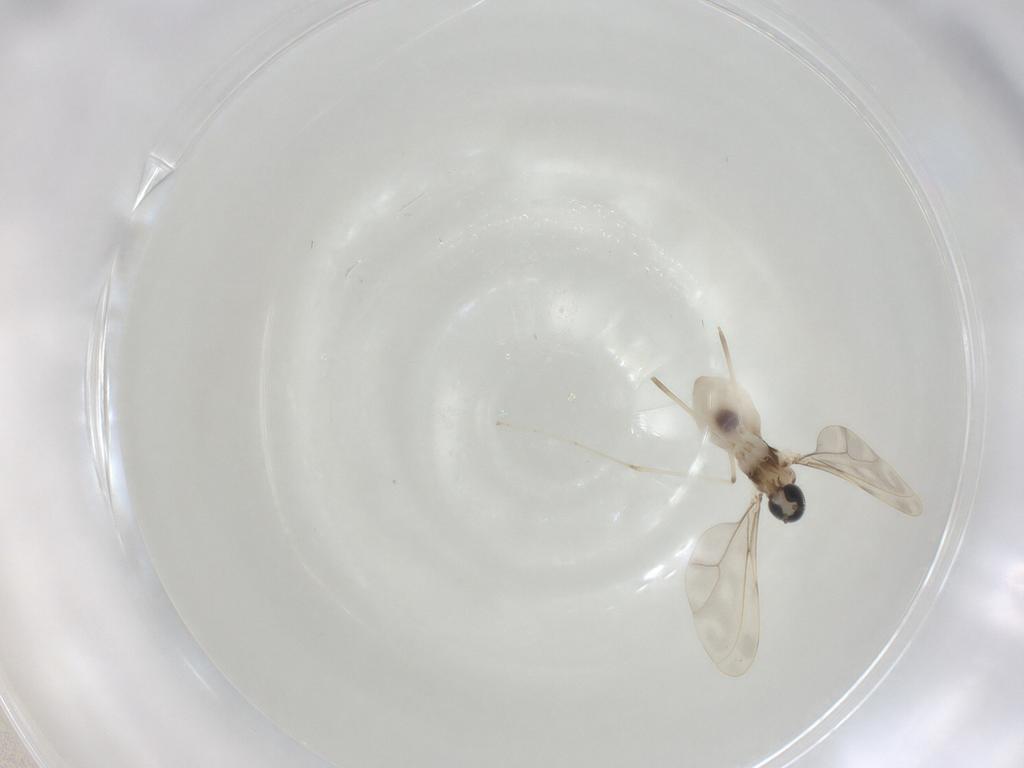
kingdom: Animalia
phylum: Arthropoda
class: Insecta
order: Diptera
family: Cecidomyiidae
